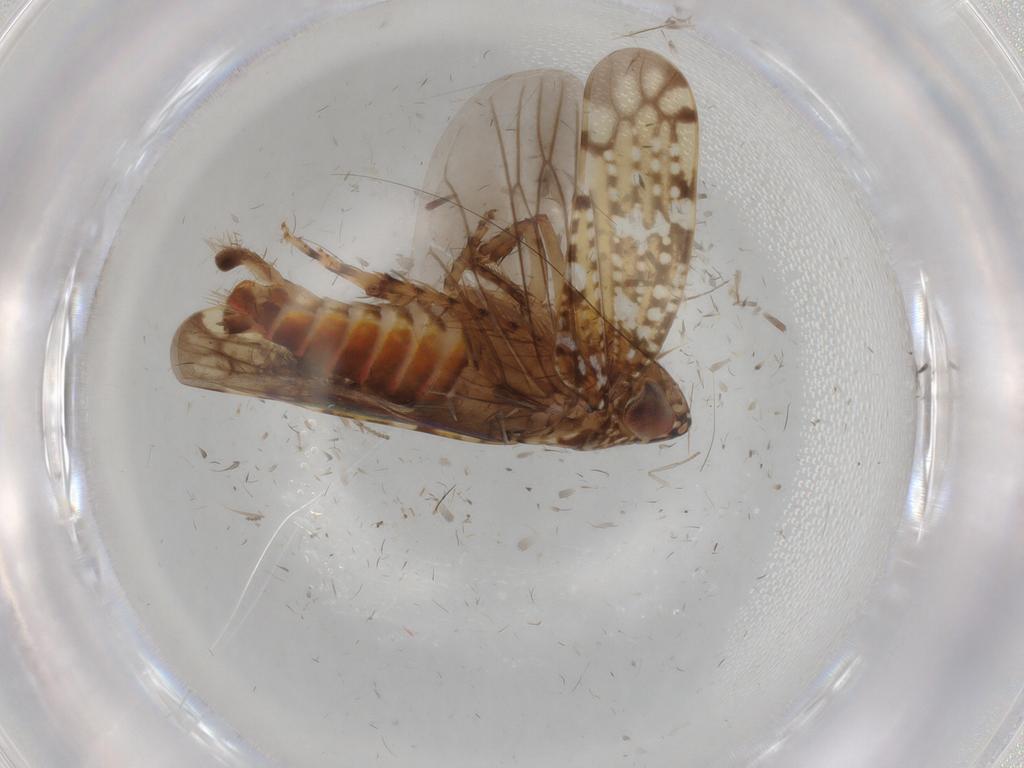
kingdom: Animalia
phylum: Arthropoda
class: Insecta
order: Hemiptera
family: Cicadellidae
